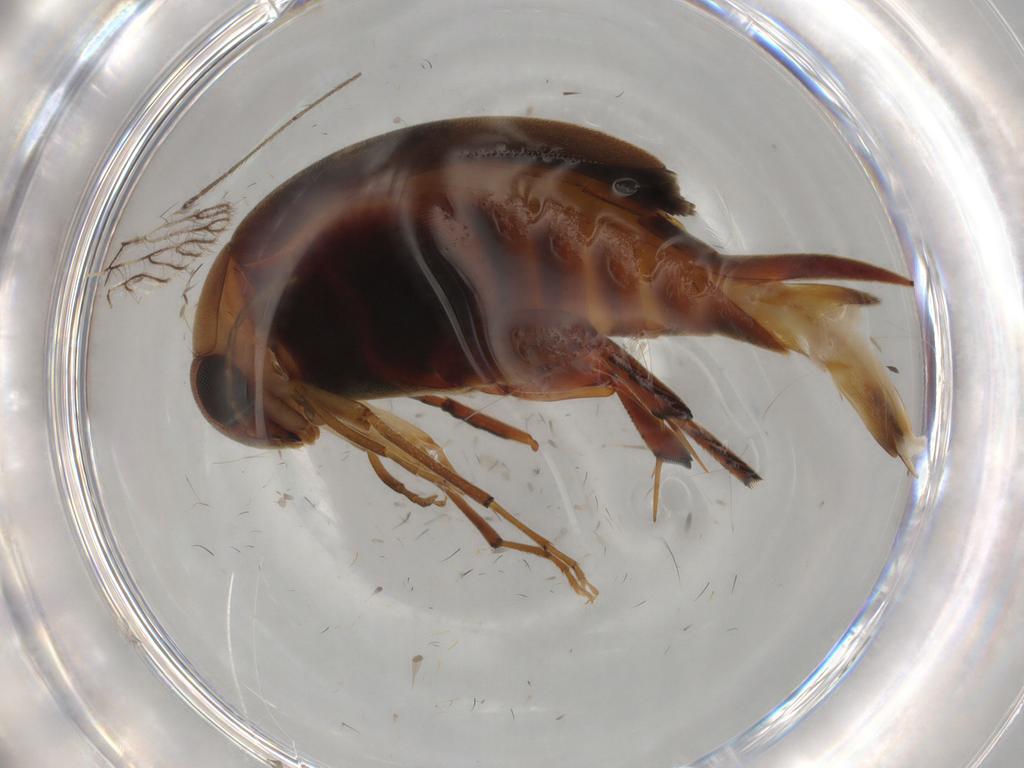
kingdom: Animalia
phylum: Arthropoda
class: Insecta
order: Coleoptera
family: Mordellidae
